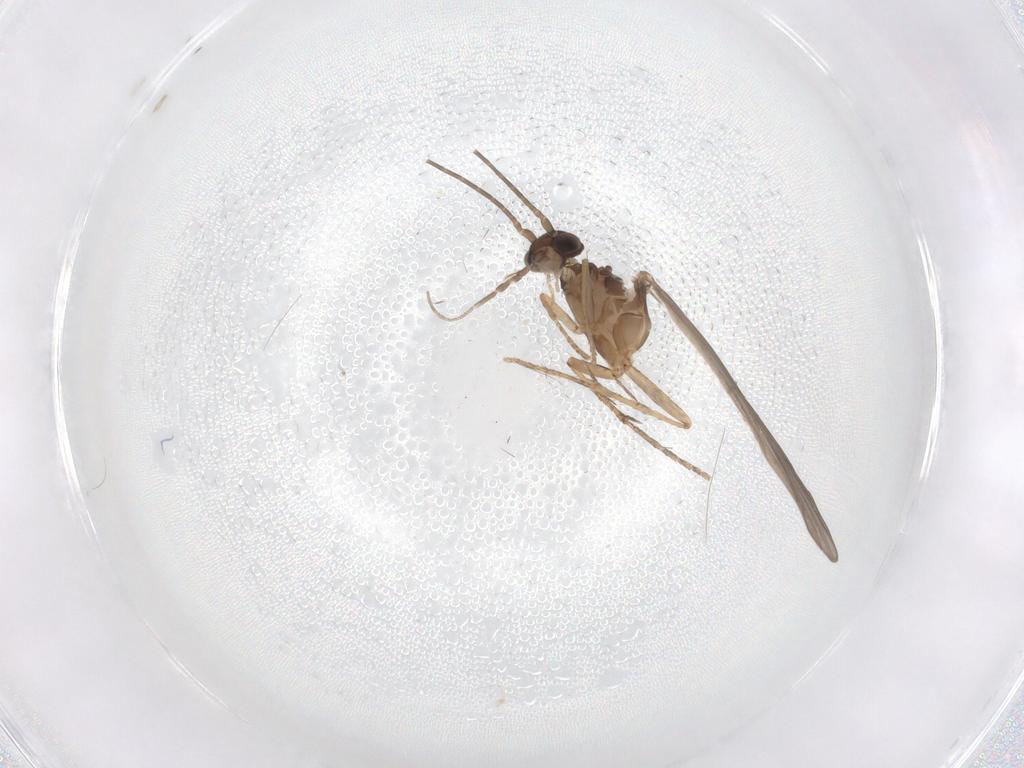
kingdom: Animalia
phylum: Arthropoda
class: Insecta
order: Trichoptera
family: Xiphocentronidae
